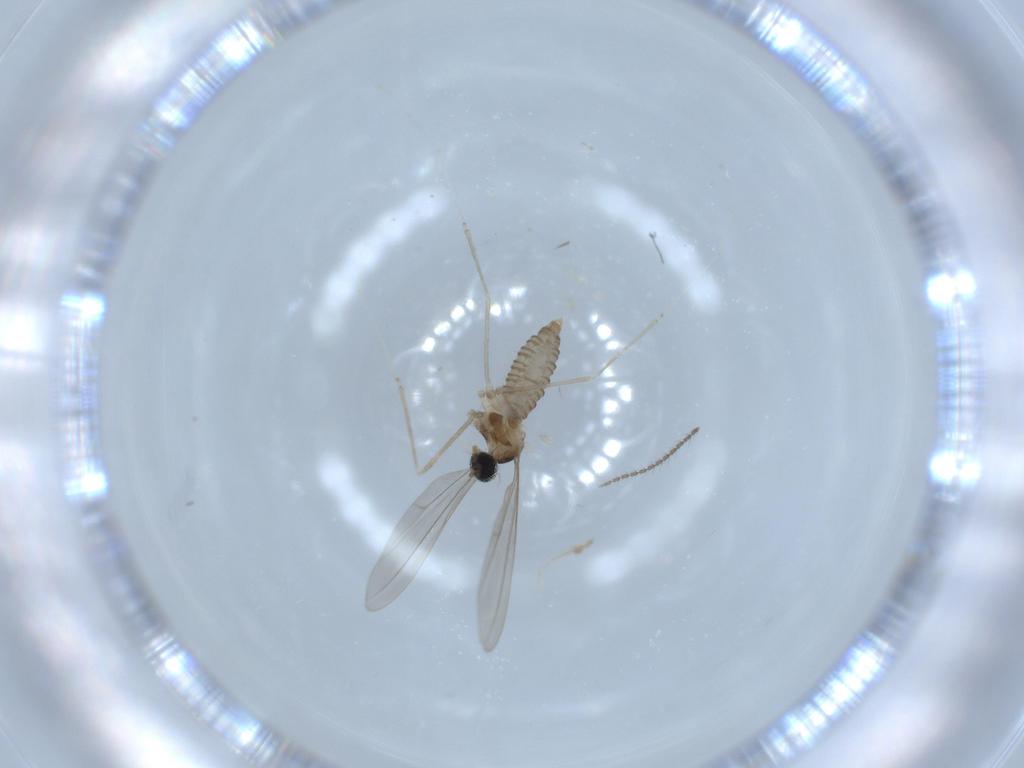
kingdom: Animalia
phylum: Arthropoda
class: Insecta
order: Diptera
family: Cecidomyiidae
